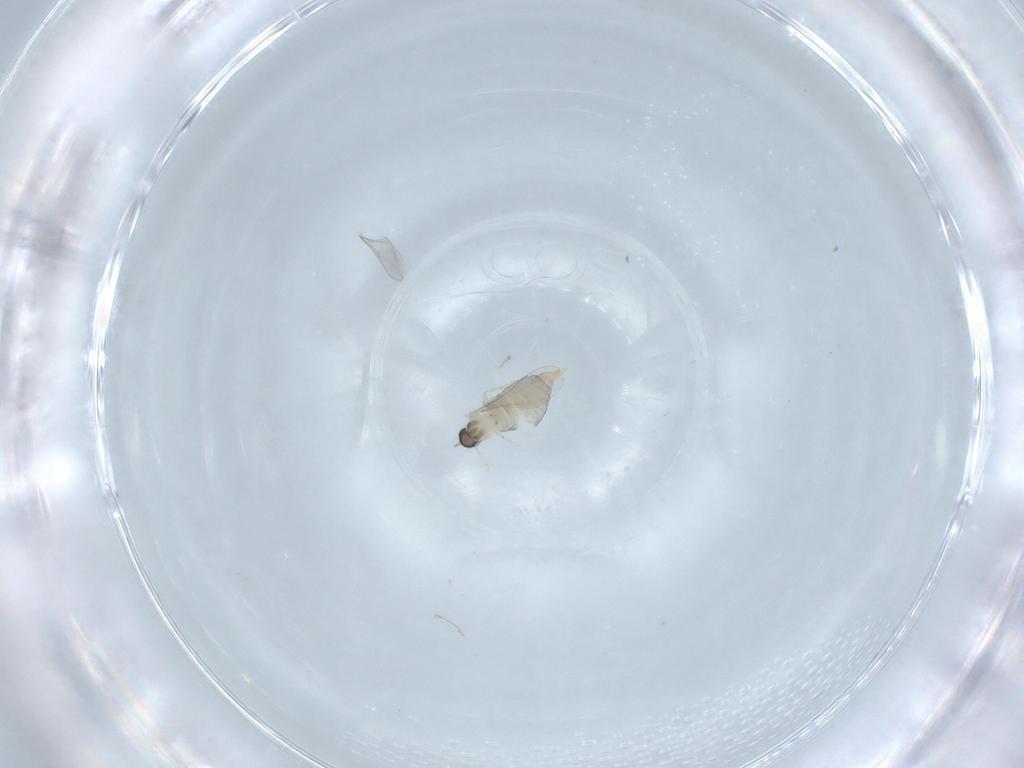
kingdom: Animalia
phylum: Arthropoda
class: Insecta
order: Diptera
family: Cecidomyiidae
